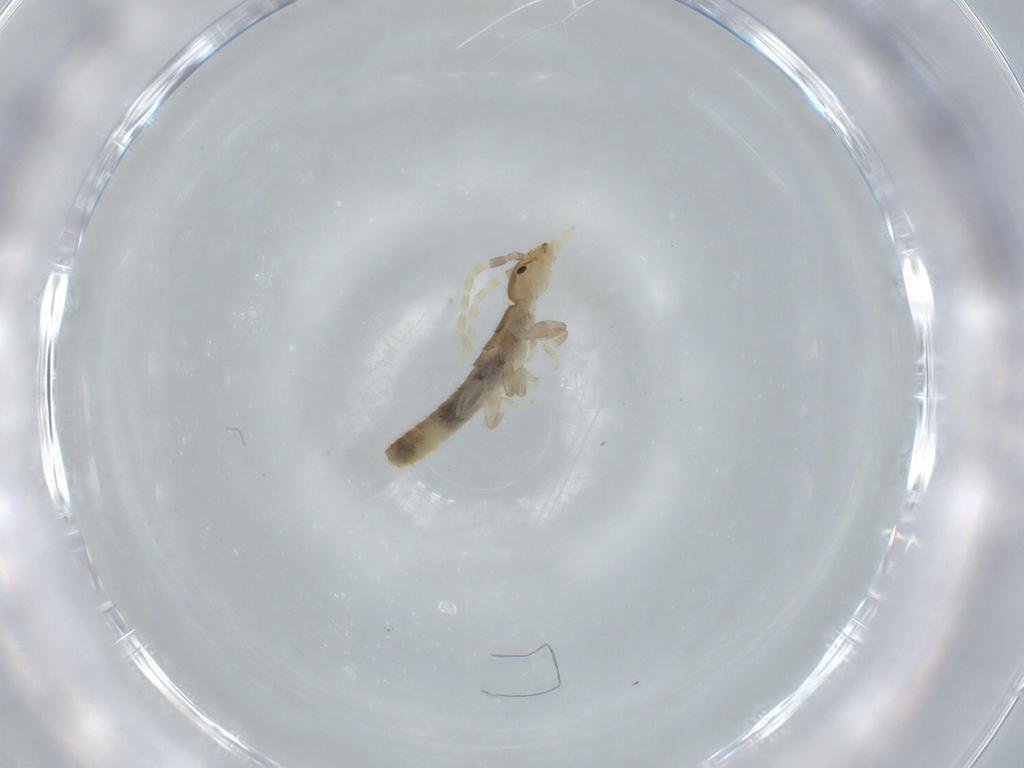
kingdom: Animalia
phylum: Arthropoda
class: Insecta
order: Dermaptera
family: Forficulidae
